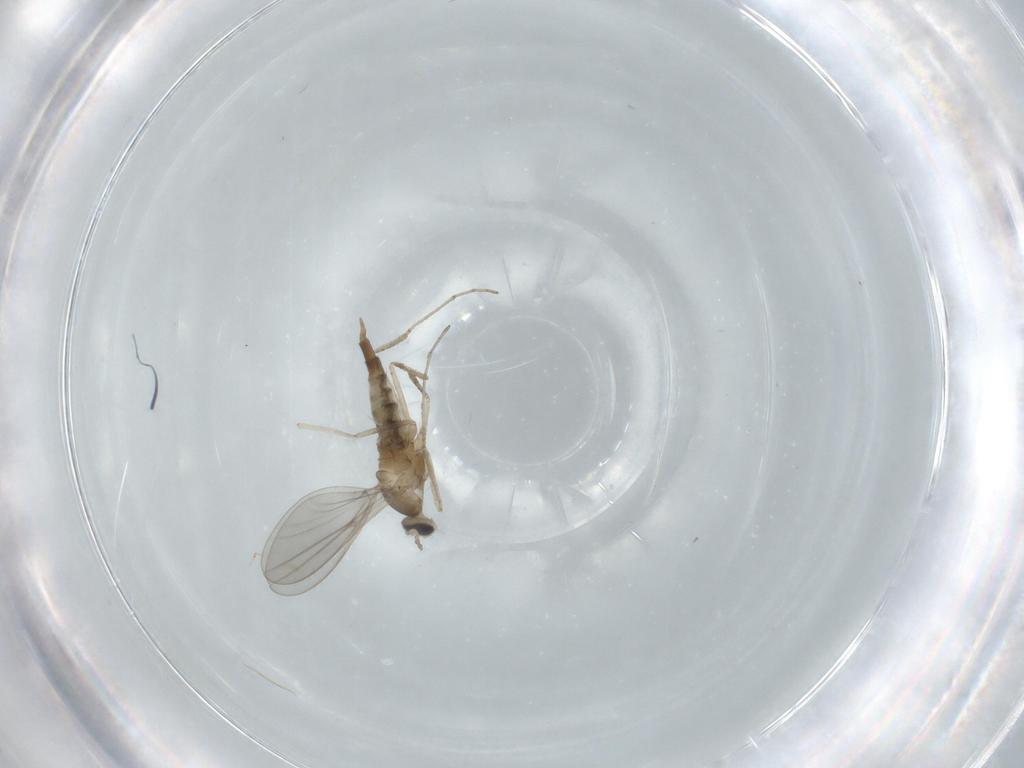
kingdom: Animalia
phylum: Arthropoda
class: Insecta
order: Diptera
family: Cecidomyiidae
